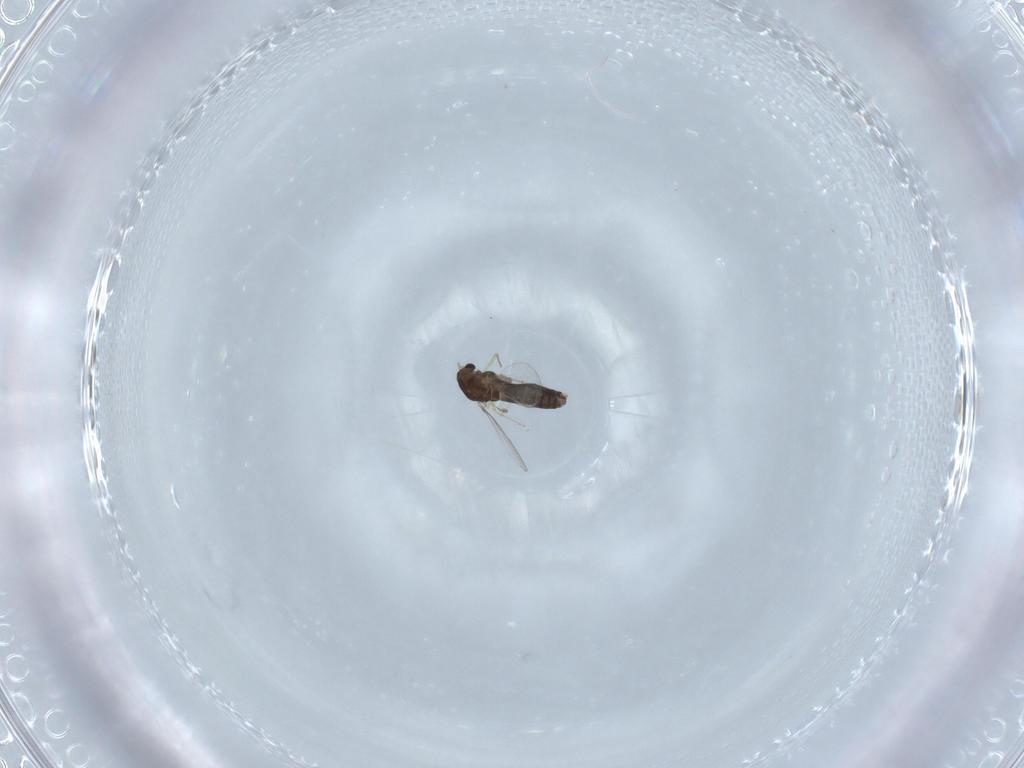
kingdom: Animalia
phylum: Arthropoda
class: Insecta
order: Diptera
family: Chironomidae
